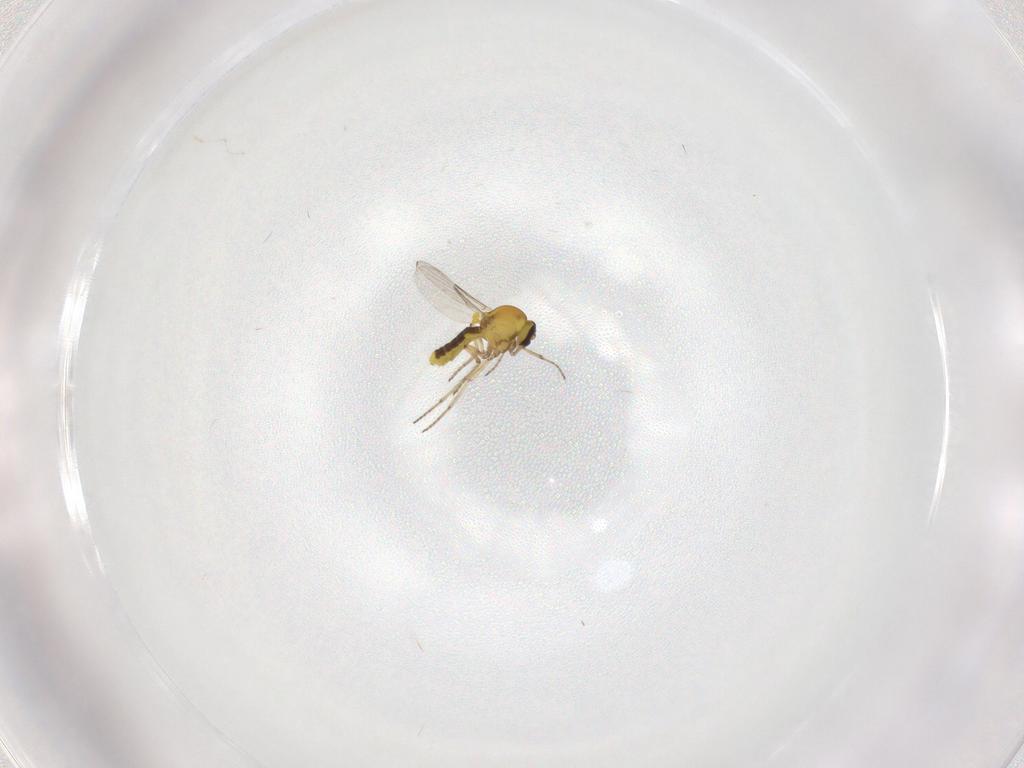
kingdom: Animalia
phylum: Arthropoda
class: Insecta
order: Diptera
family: Ceratopogonidae
